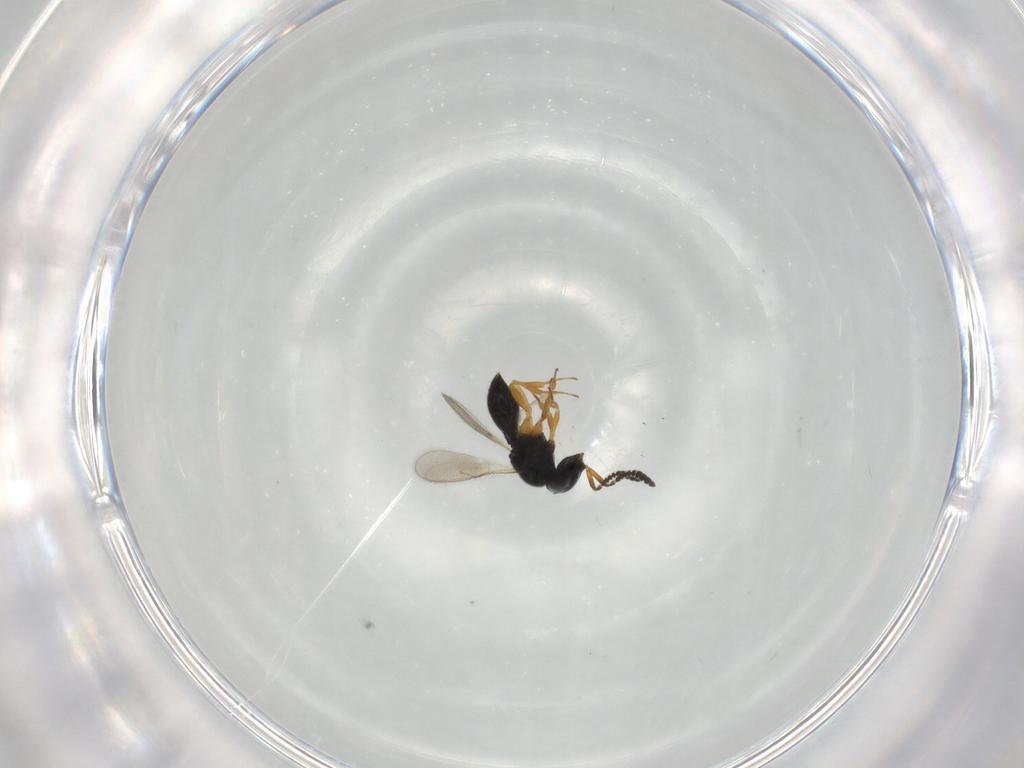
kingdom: Animalia
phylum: Arthropoda
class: Insecta
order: Hymenoptera
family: Scelionidae
